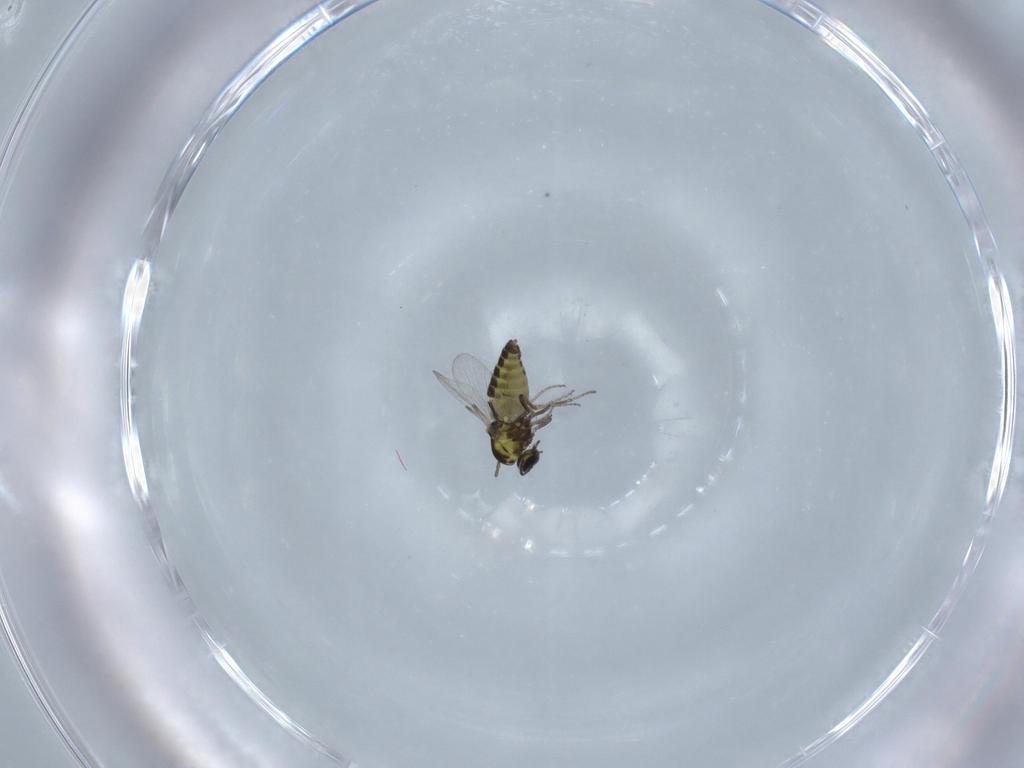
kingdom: Animalia
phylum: Arthropoda
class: Insecta
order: Diptera
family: Ceratopogonidae
